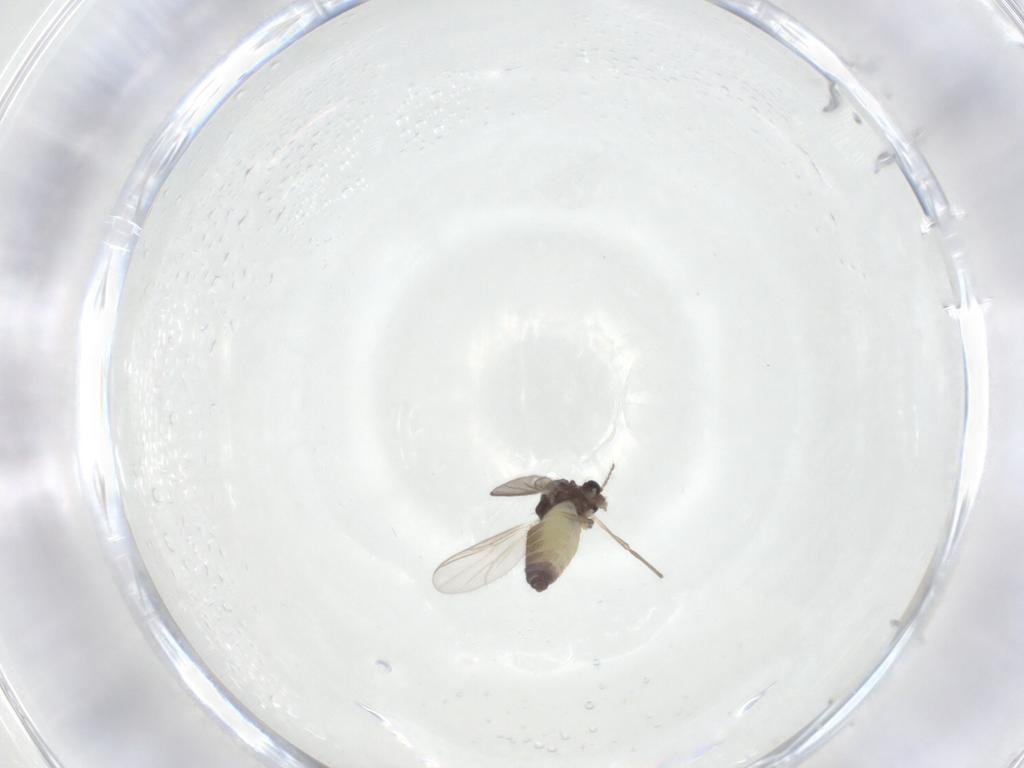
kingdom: Animalia
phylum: Arthropoda
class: Insecta
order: Diptera
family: Chironomidae
